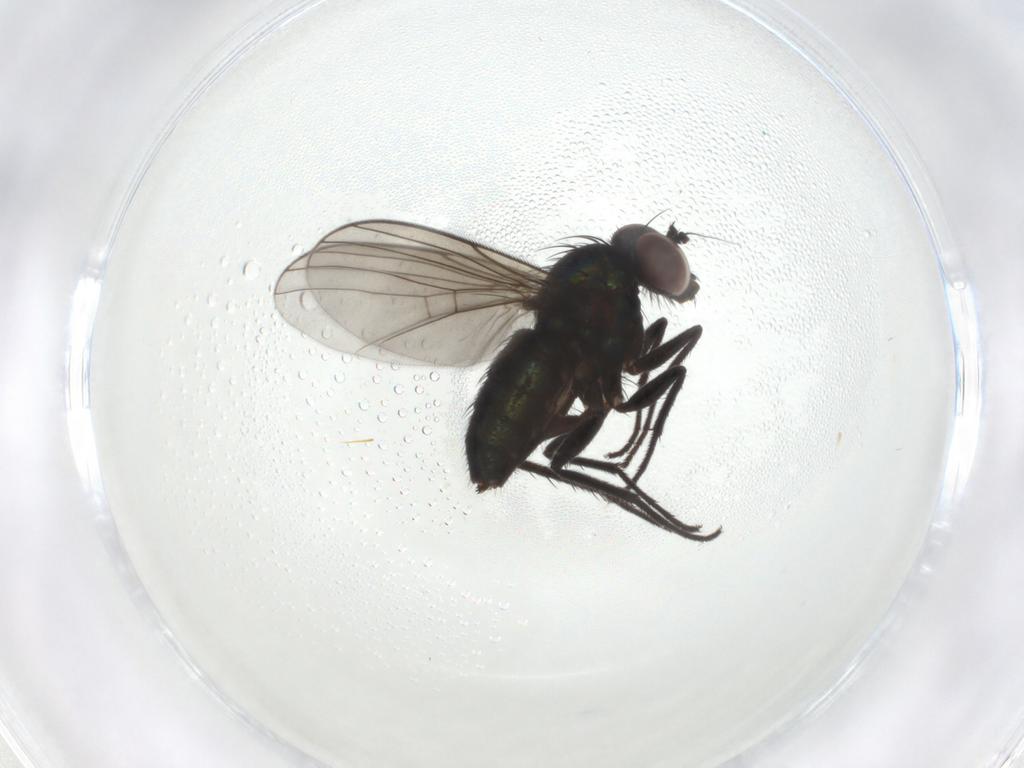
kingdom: Animalia
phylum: Arthropoda
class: Insecta
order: Diptera
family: Dolichopodidae
